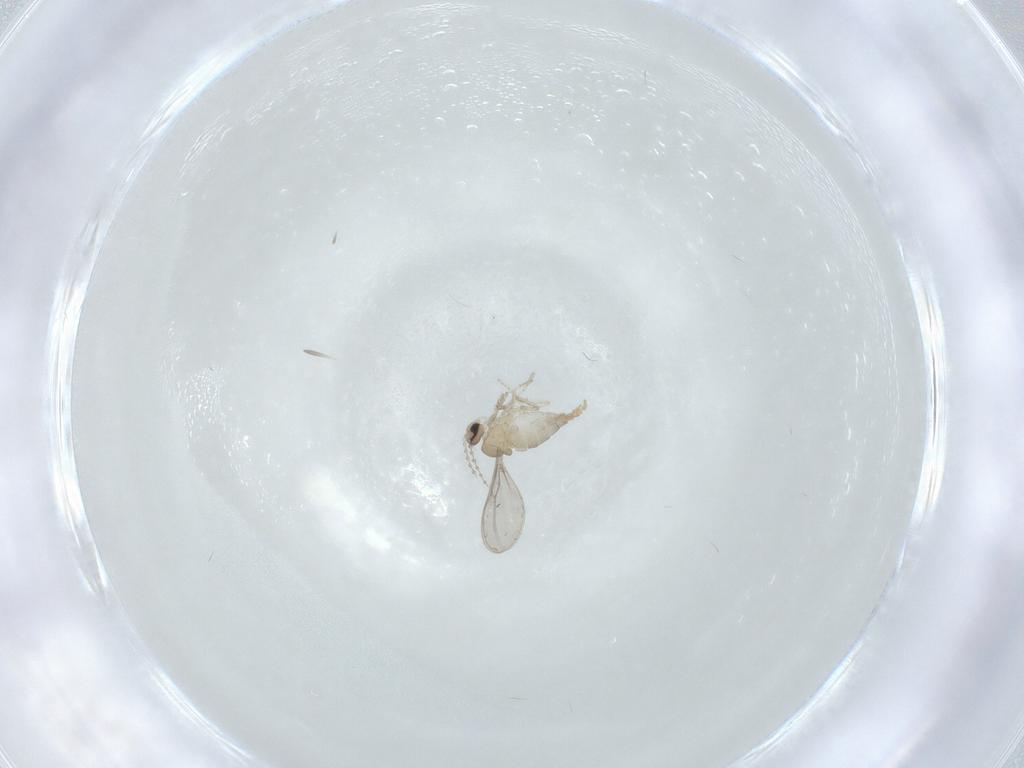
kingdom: Animalia
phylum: Arthropoda
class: Insecta
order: Diptera
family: Cecidomyiidae
